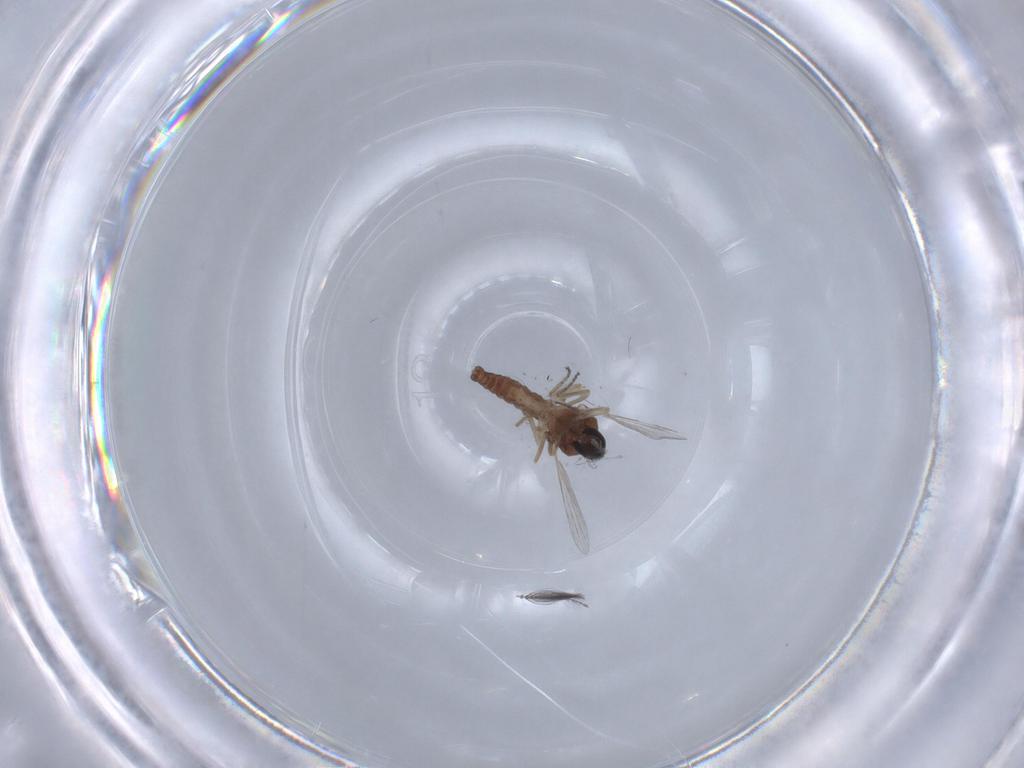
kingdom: Animalia
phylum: Arthropoda
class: Insecta
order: Diptera
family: Ceratopogonidae
